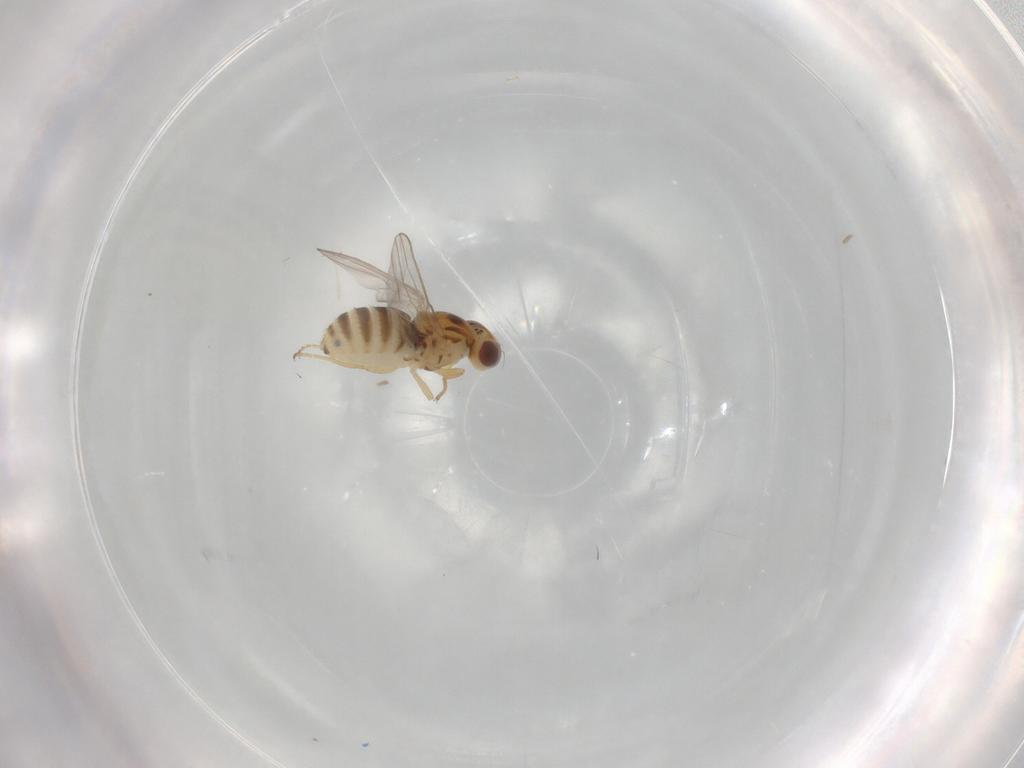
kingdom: Animalia
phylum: Arthropoda
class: Insecta
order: Diptera
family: Chyromyidae
